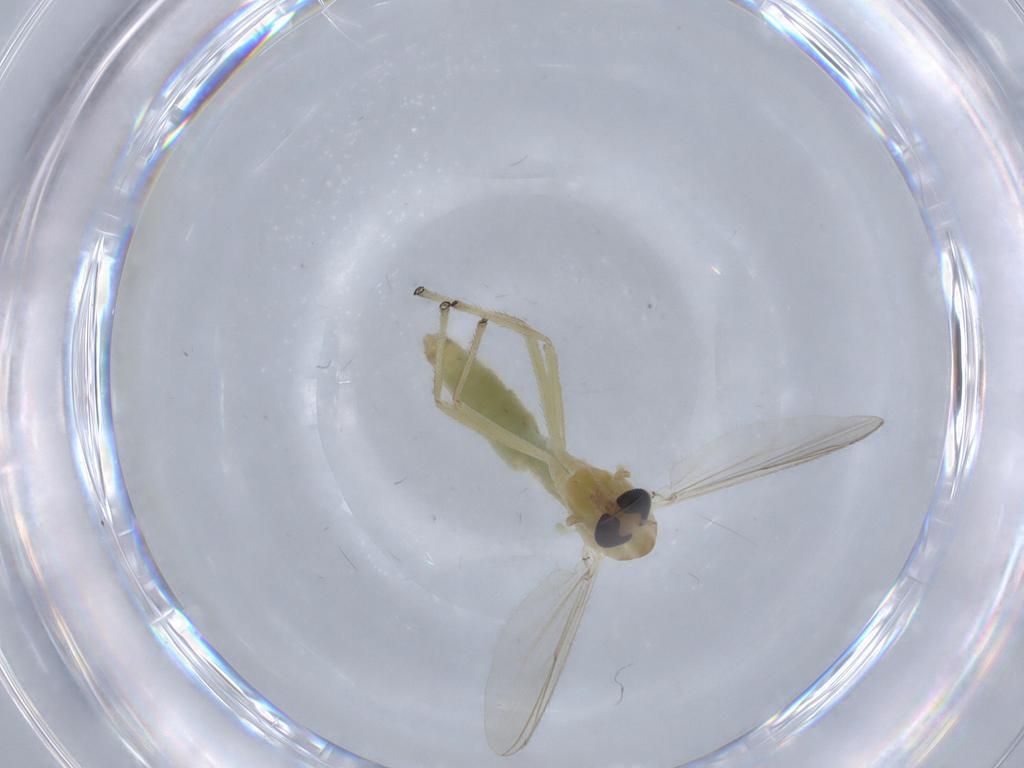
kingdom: Animalia
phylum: Arthropoda
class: Insecta
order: Diptera
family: Chironomidae
